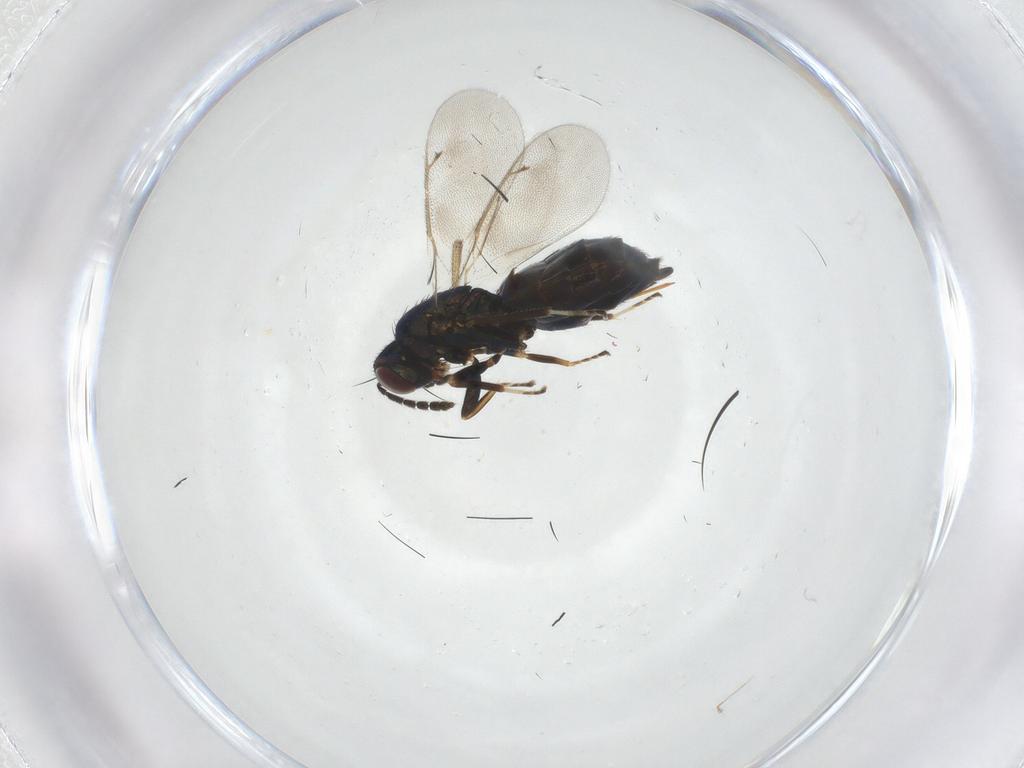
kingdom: Animalia
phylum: Arthropoda
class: Insecta
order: Hymenoptera
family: Eulophidae
